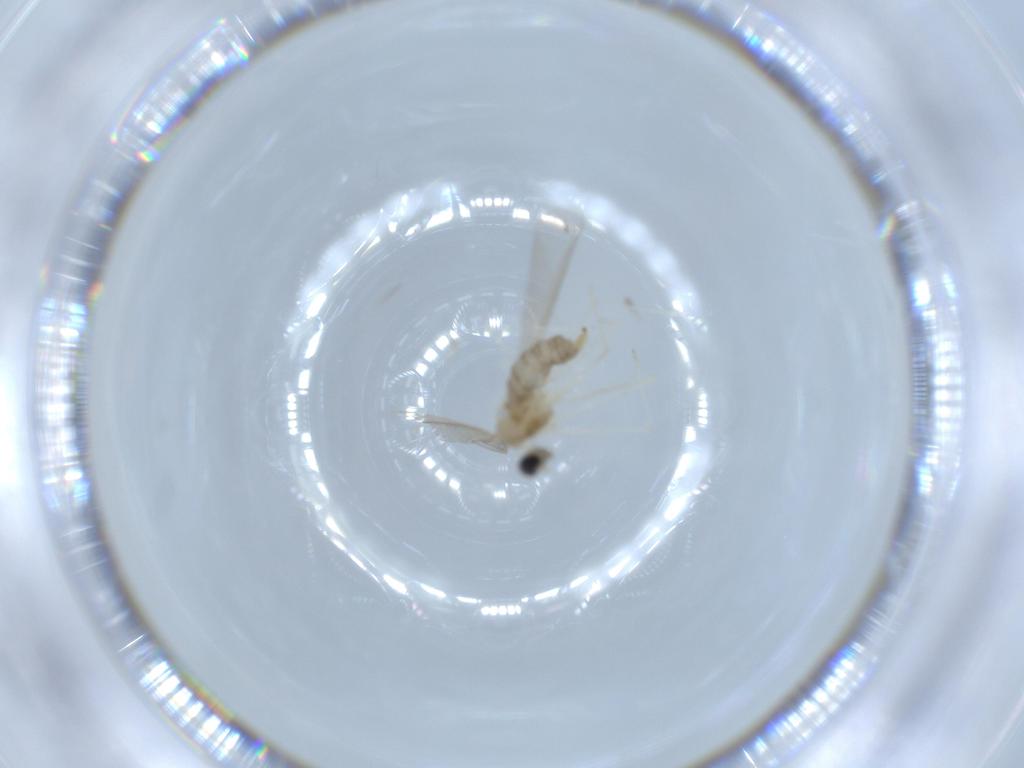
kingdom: Animalia
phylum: Arthropoda
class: Insecta
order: Diptera
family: Cecidomyiidae
